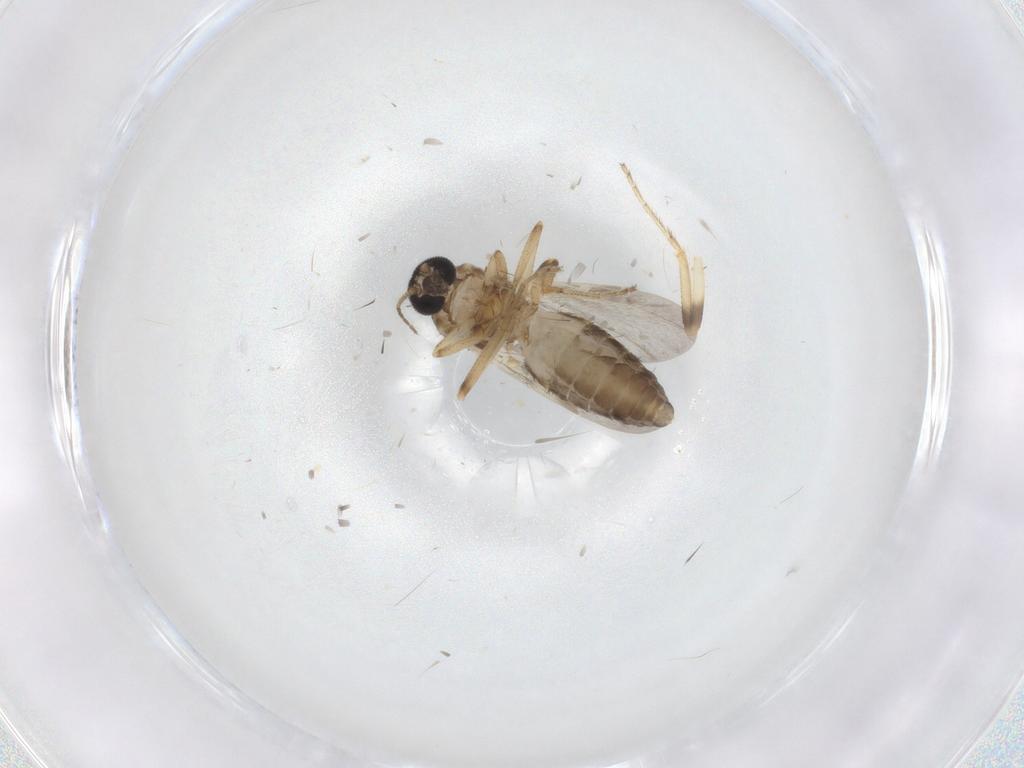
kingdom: Animalia
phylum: Arthropoda
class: Insecta
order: Diptera
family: Ceratopogonidae
